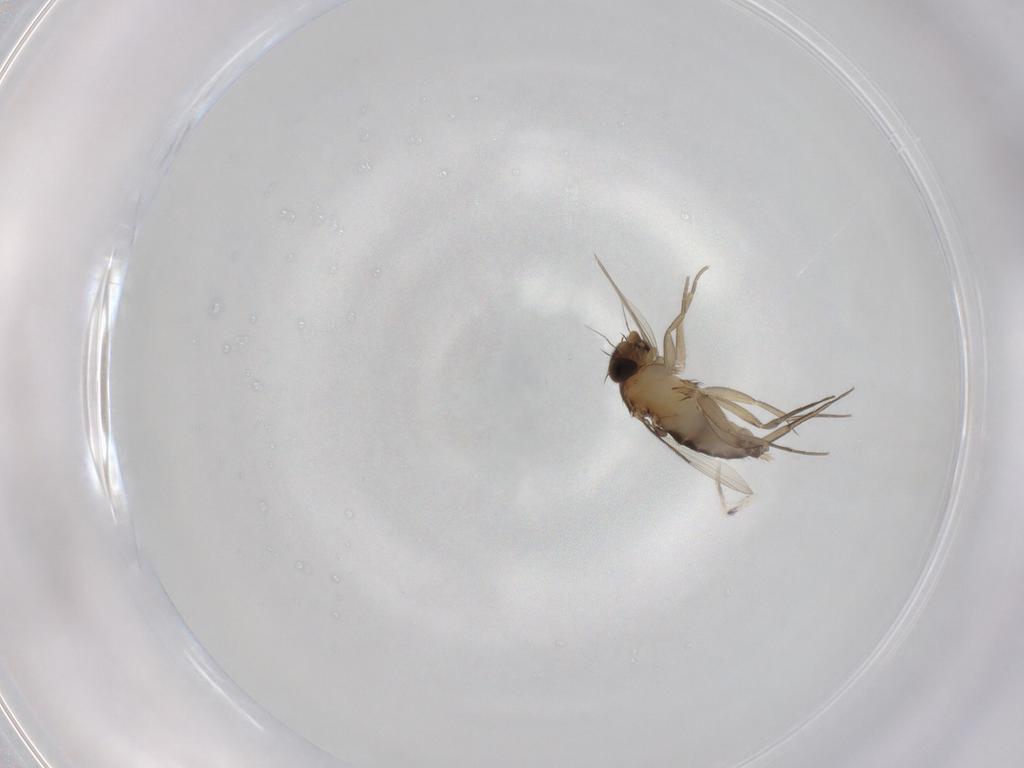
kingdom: Animalia
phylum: Arthropoda
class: Insecta
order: Diptera
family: Phoridae
